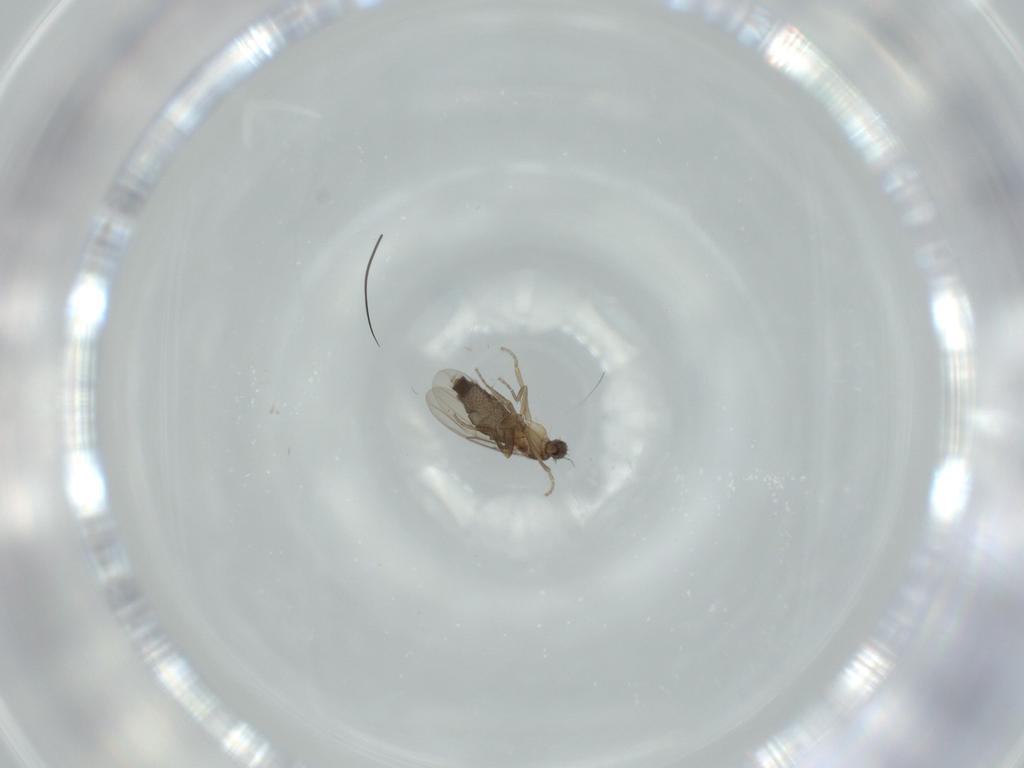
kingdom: Animalia
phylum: Arthropoda
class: Insecta
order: Diptera
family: Phoridae
